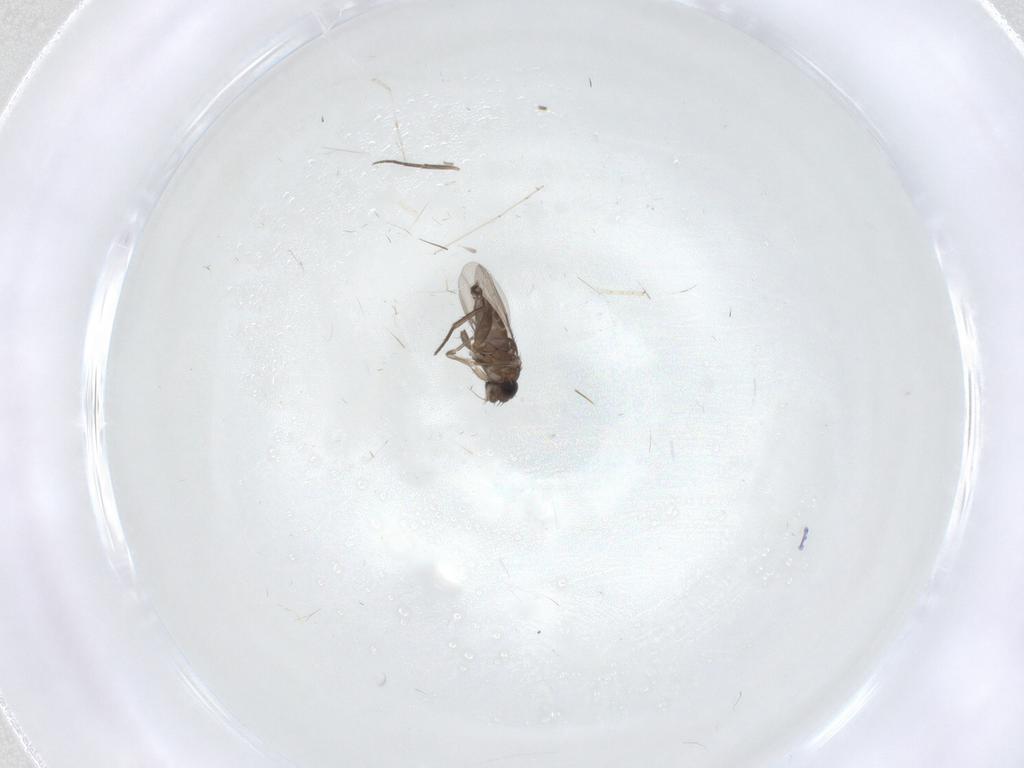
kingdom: Animalia
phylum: Arthropoda
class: Insecta
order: Diptera
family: Cecidomyiidae
